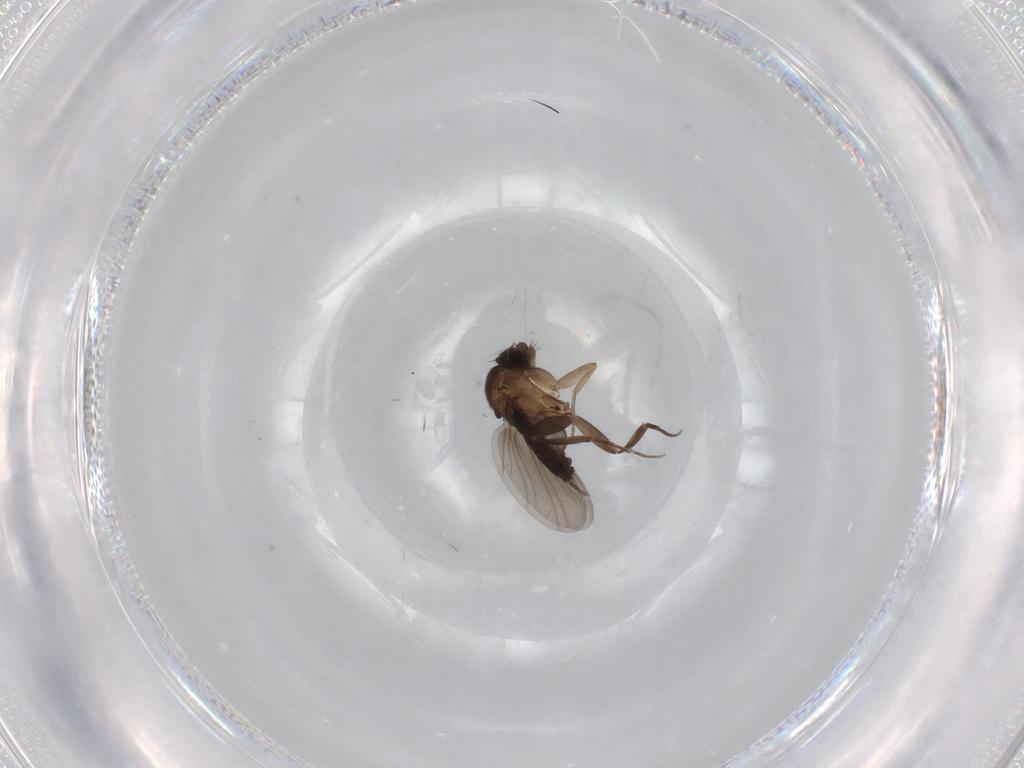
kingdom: Animalia
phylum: Arthropoda
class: Insecta
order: Diptera
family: Phoridae
